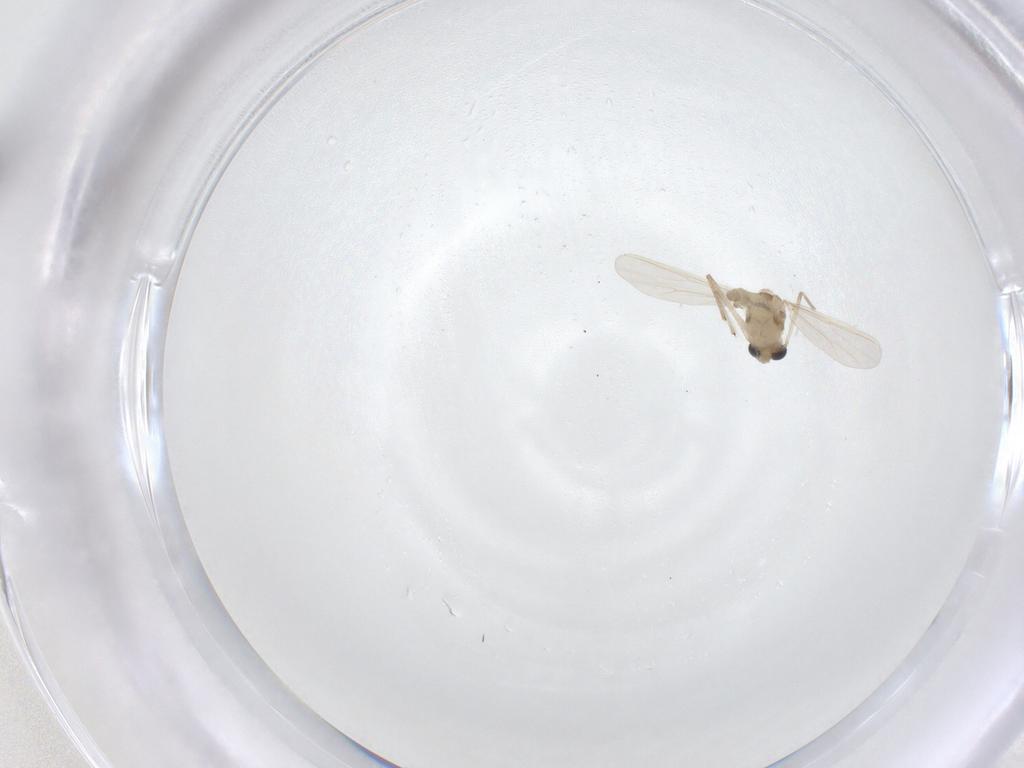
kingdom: Animalia
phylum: Arthropoda
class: Insecta
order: Diptera
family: Chironomidae
